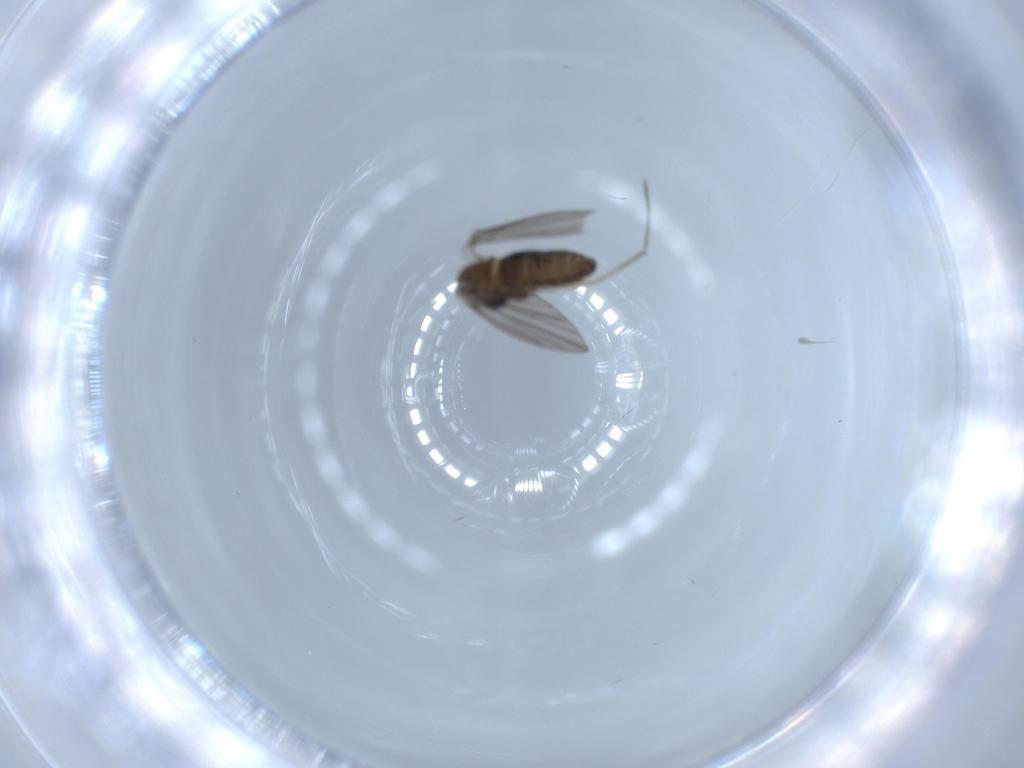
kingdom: Animalia
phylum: Arthropoda
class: Insecta
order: Diptera
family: Psychodidae
